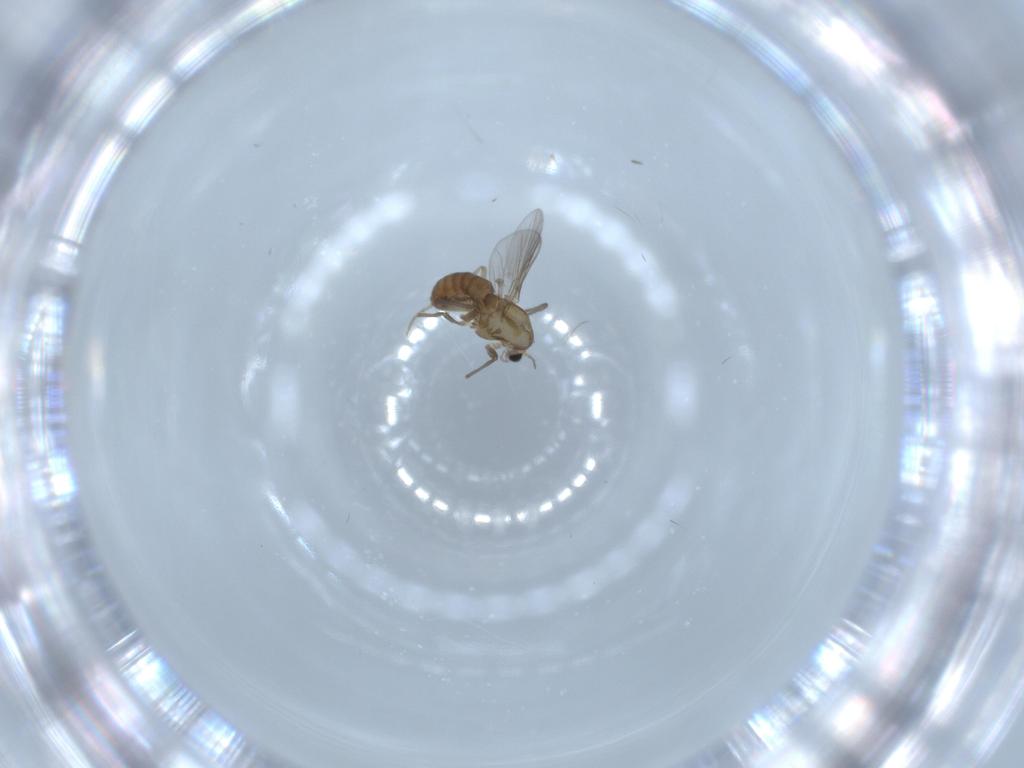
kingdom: Animalia
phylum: Arthropoda
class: Insecta
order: Diptera
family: Chironomidae
